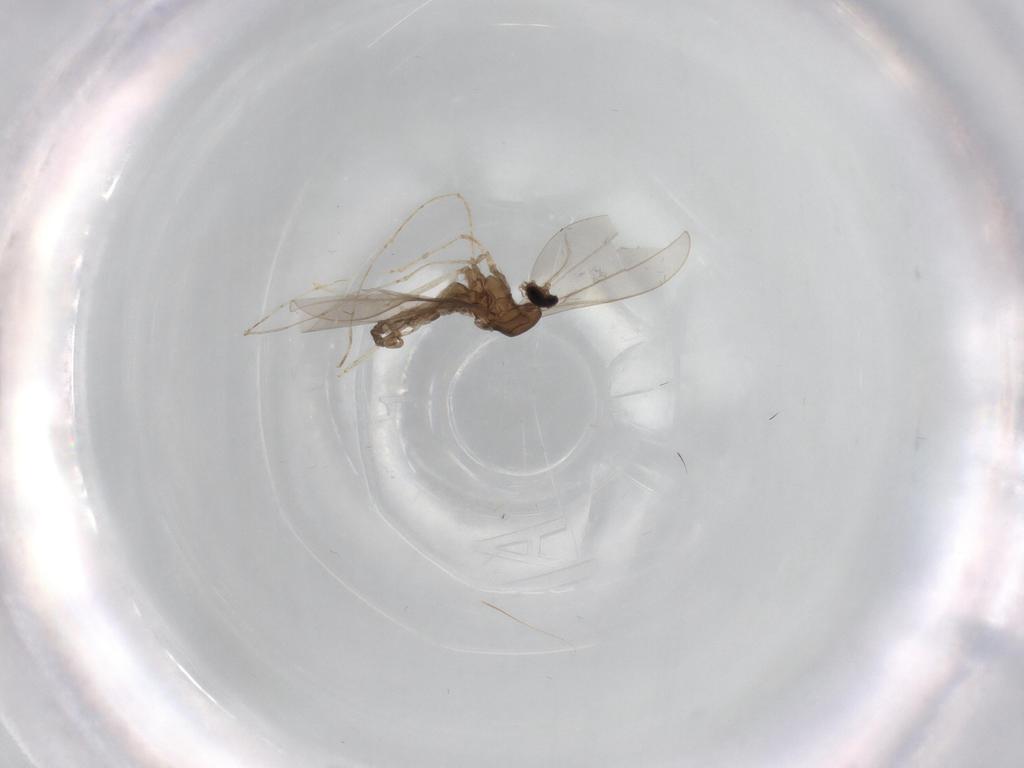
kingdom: Animalia
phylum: Arthropoda
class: Insecta
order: Diptera
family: Cecidomyiidae
